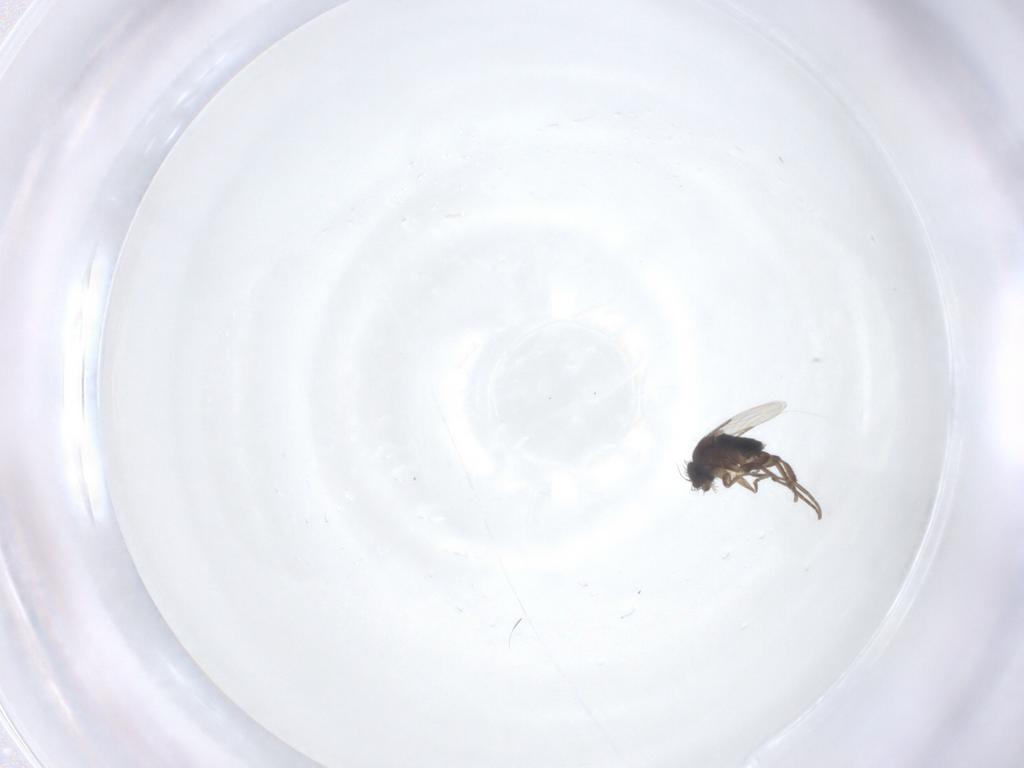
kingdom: Animalia
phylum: Arthropoda
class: Insecta
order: Diptera
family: Phoridae
